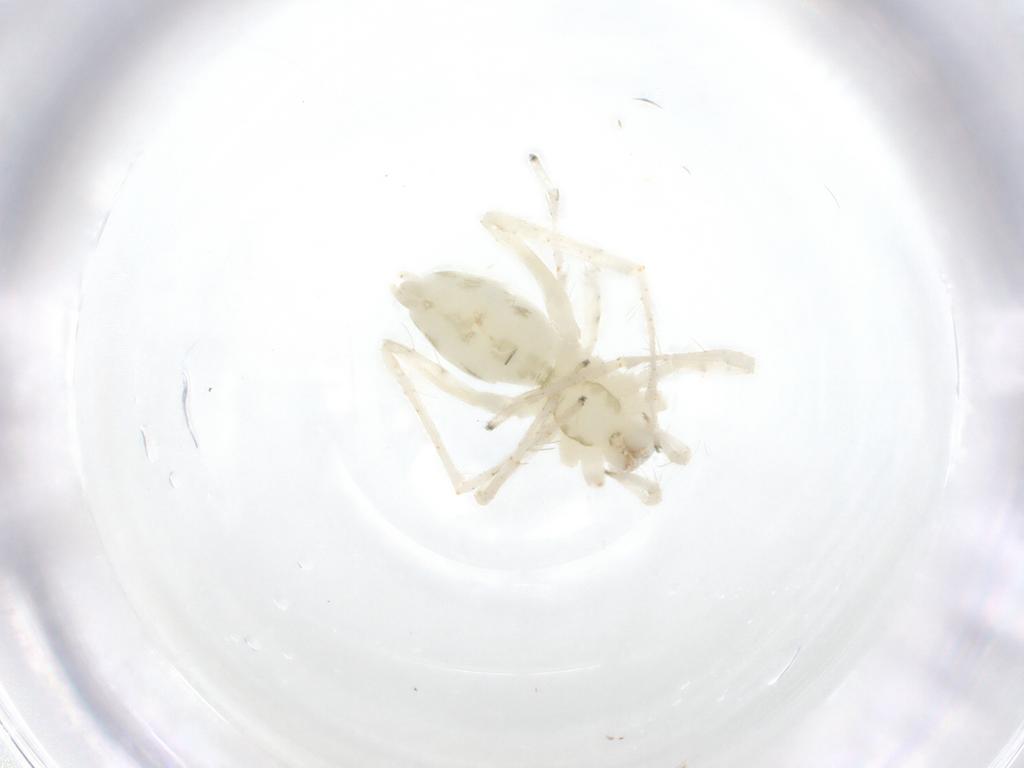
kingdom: Animalia
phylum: Arthropoda
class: Arachnida
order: Araneae
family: Anyphaenidae
